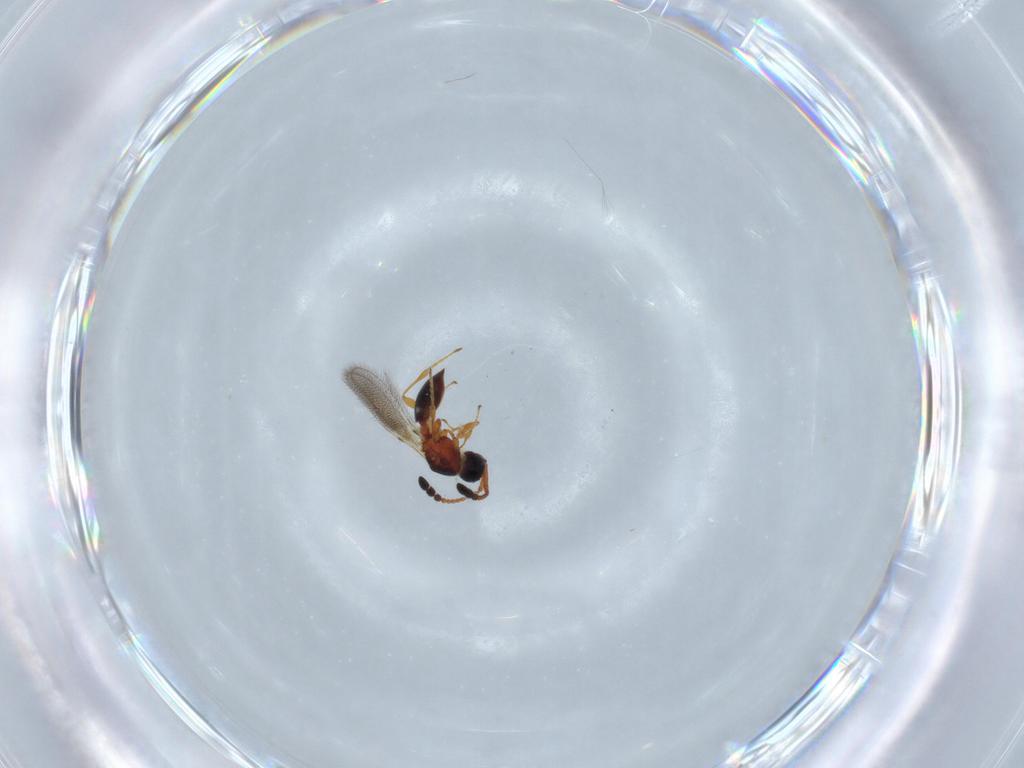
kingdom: Animalia
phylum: Arthropoda
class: Insecta
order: Hymenoptera
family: Diapriidae
